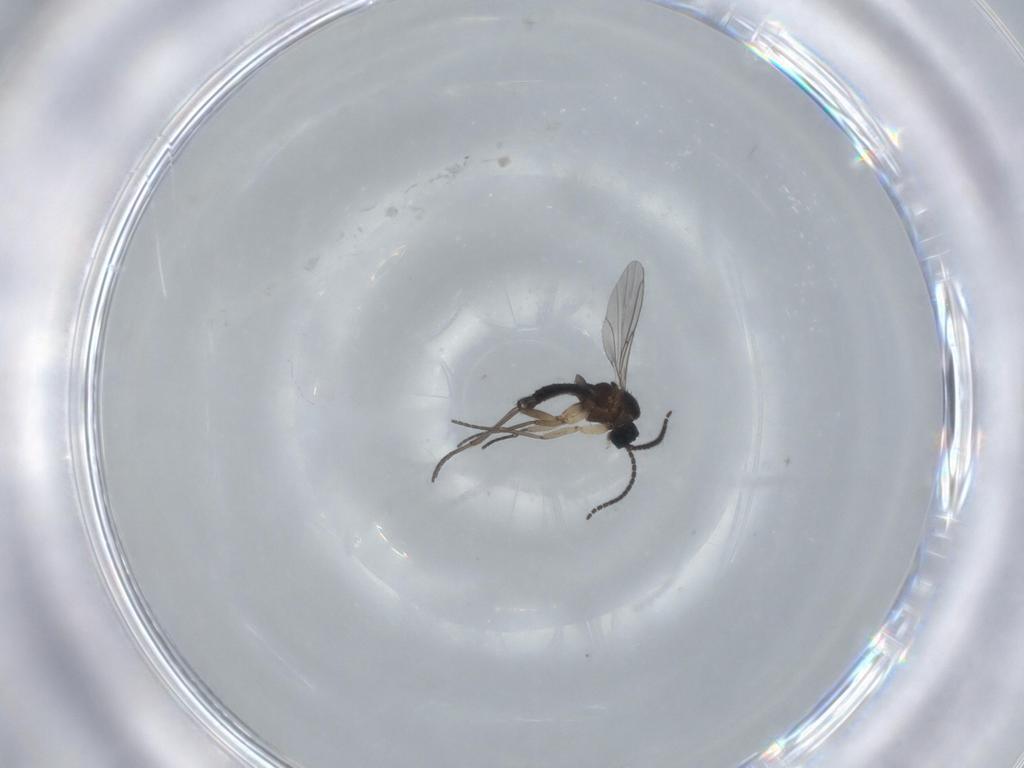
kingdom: Animalia
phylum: Arthropoda
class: Insecta
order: Diptera
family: Sciaridae
